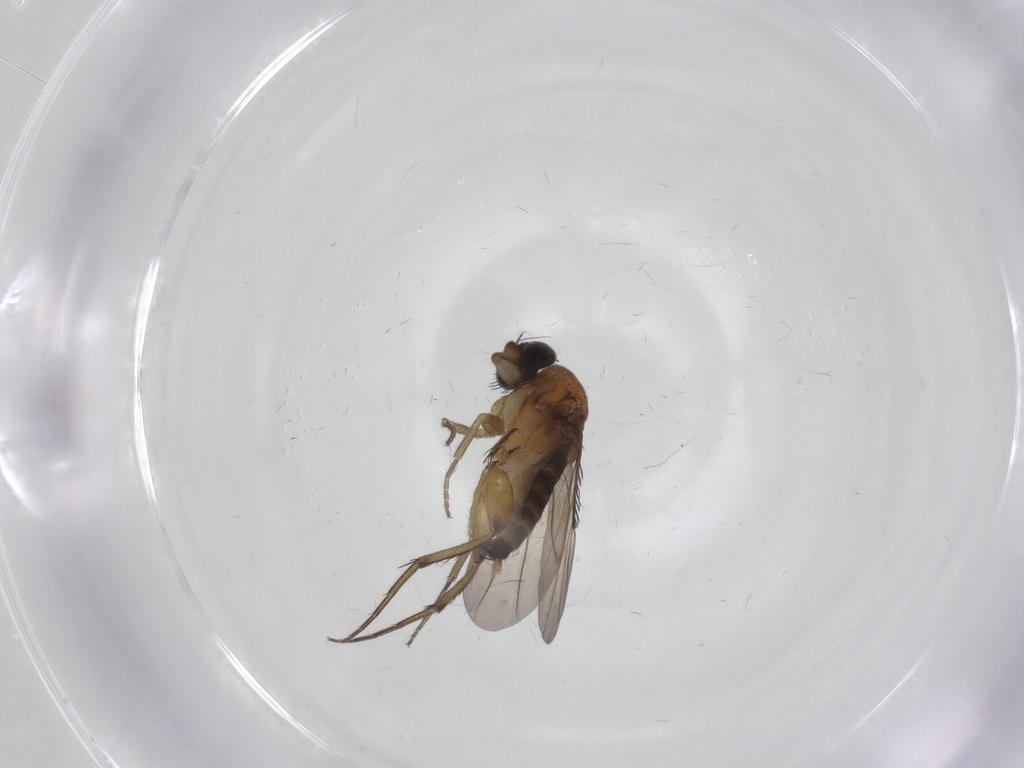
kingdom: Animalia
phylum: Arthropoda
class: Insecta
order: Diptera
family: Phoridae
